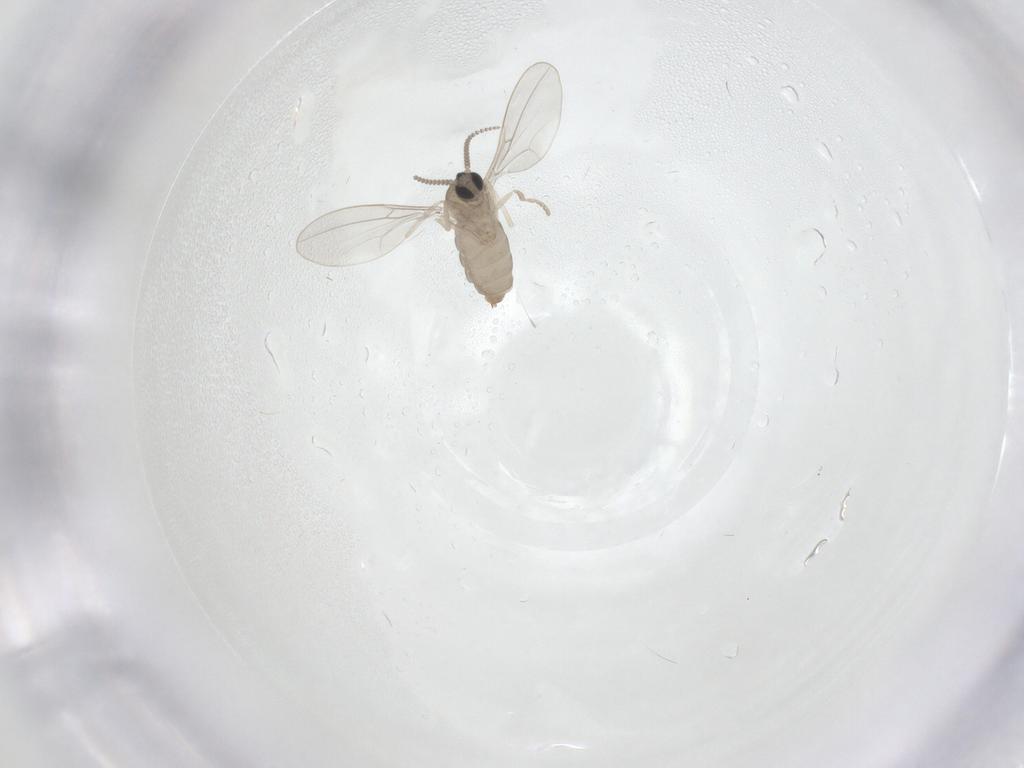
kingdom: Animalia
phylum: Arthropoda
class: Insecta
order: Diptera
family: Cecidomyiidae
